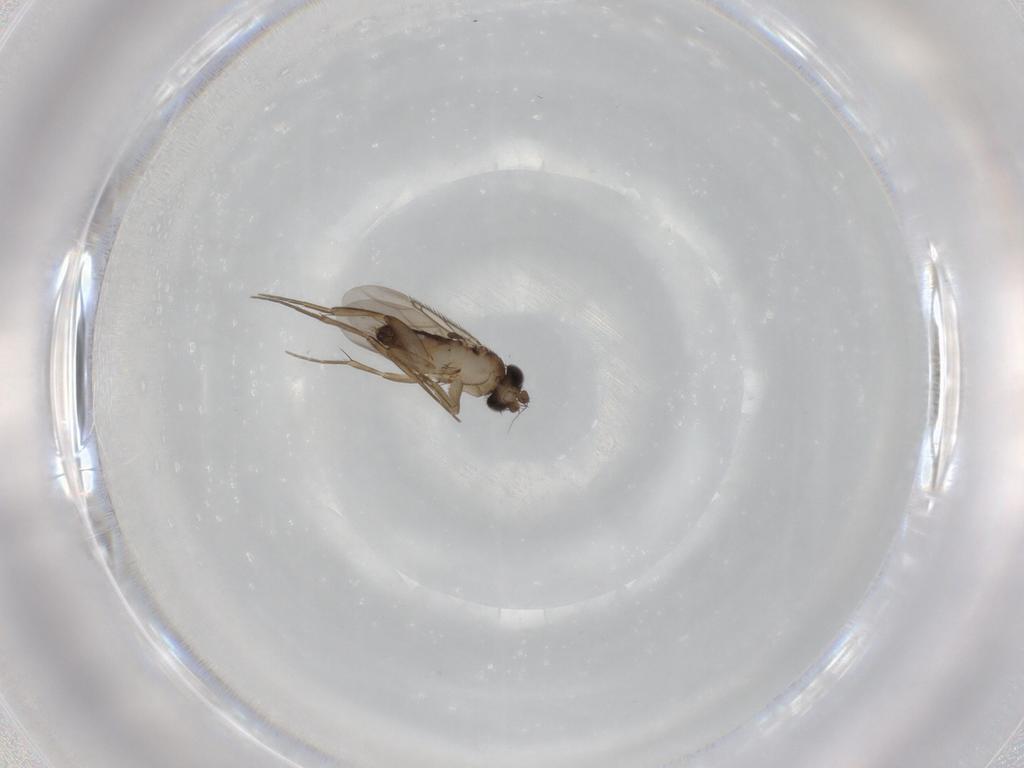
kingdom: Animalia
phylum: Arthropoda
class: Insecta
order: Diptera
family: Phoridae
